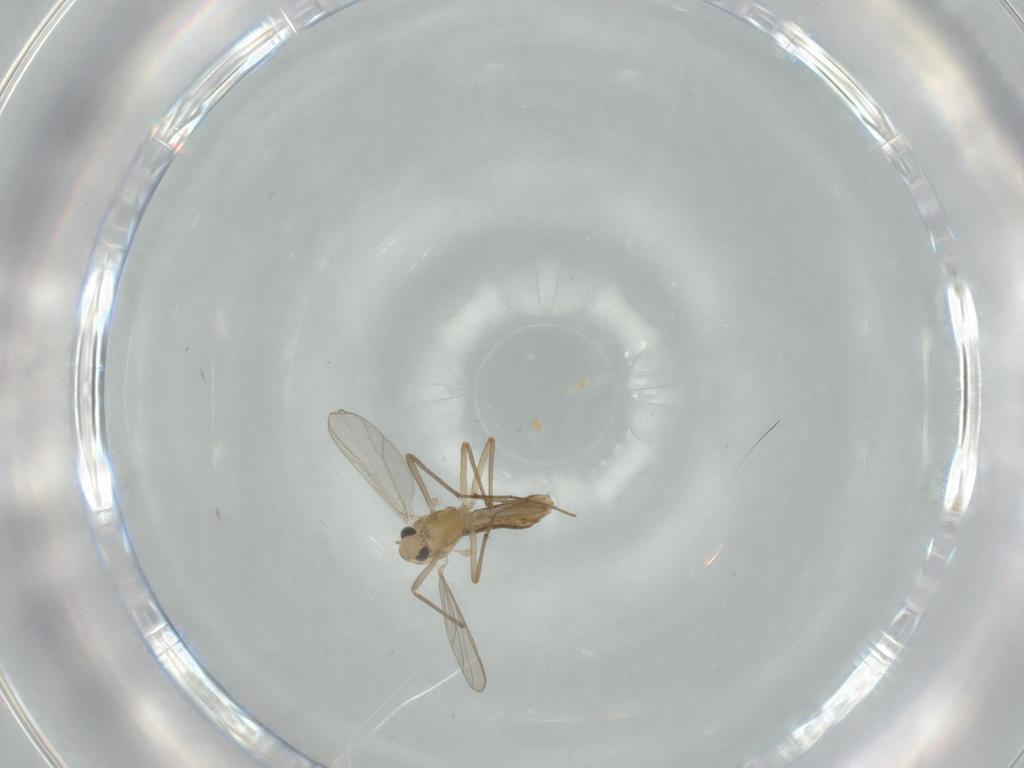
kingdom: Animalia
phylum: Arthropoda
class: Insecta
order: Diptera
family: Chironomidae
